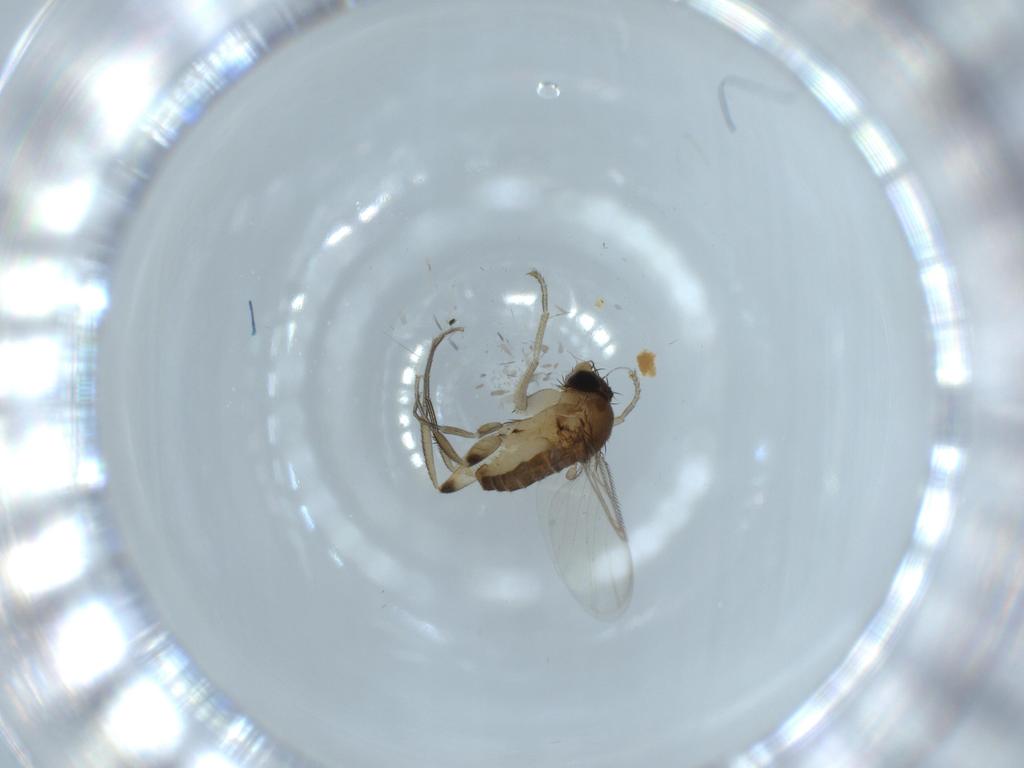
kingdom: Animalia
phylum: Arthropoda
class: Insecta
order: Diptera
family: Phoridae
